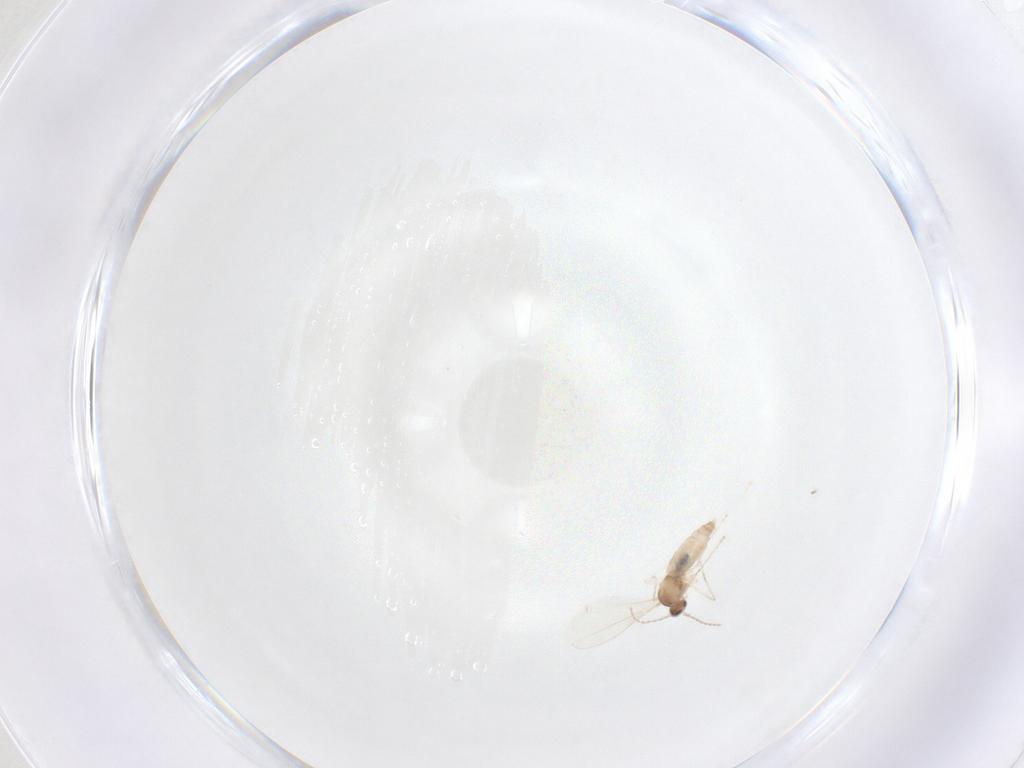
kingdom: Animalia
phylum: Arthropoda
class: Insecta
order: Diptera
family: Cecidomyiidae
